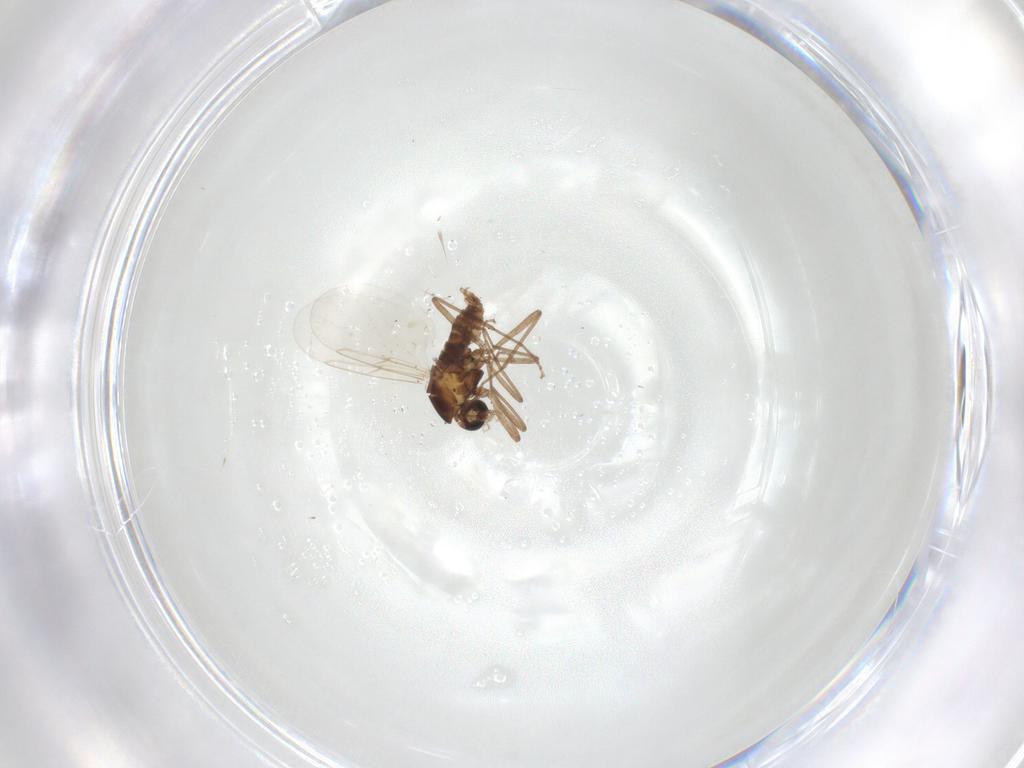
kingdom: Animalia
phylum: Arthropoda
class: Insecta
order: Diptera
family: Cecidomyiidae
